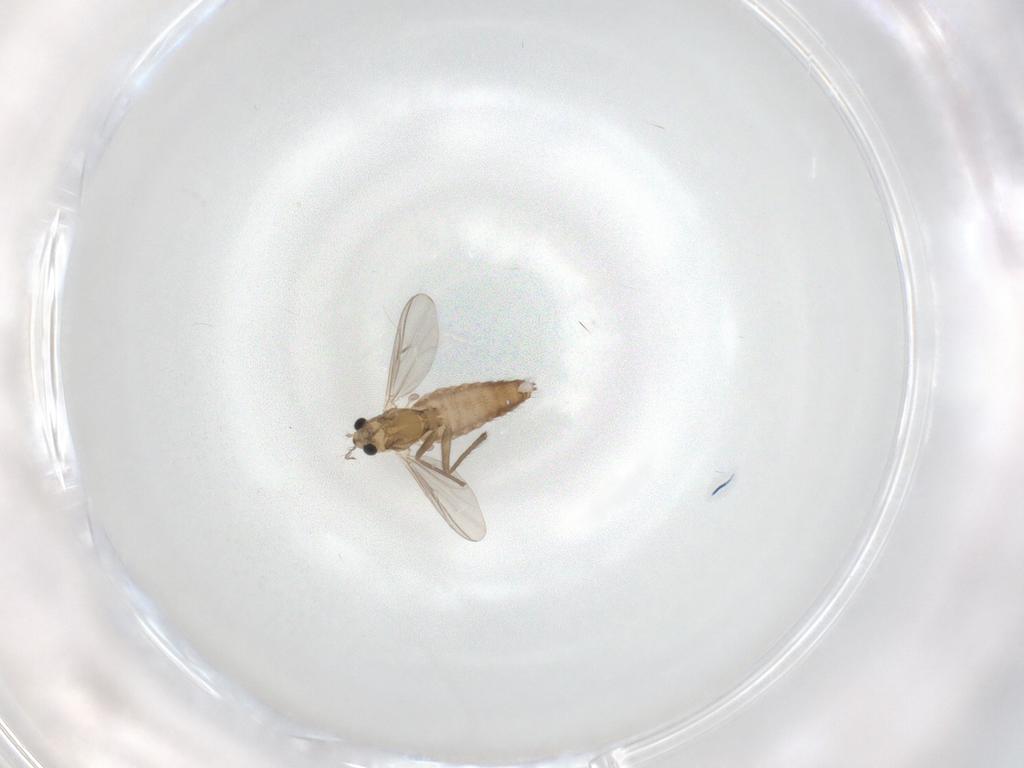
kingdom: Animalia
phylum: Arthropoda
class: Insecta
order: Diptera
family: Chironomidae
